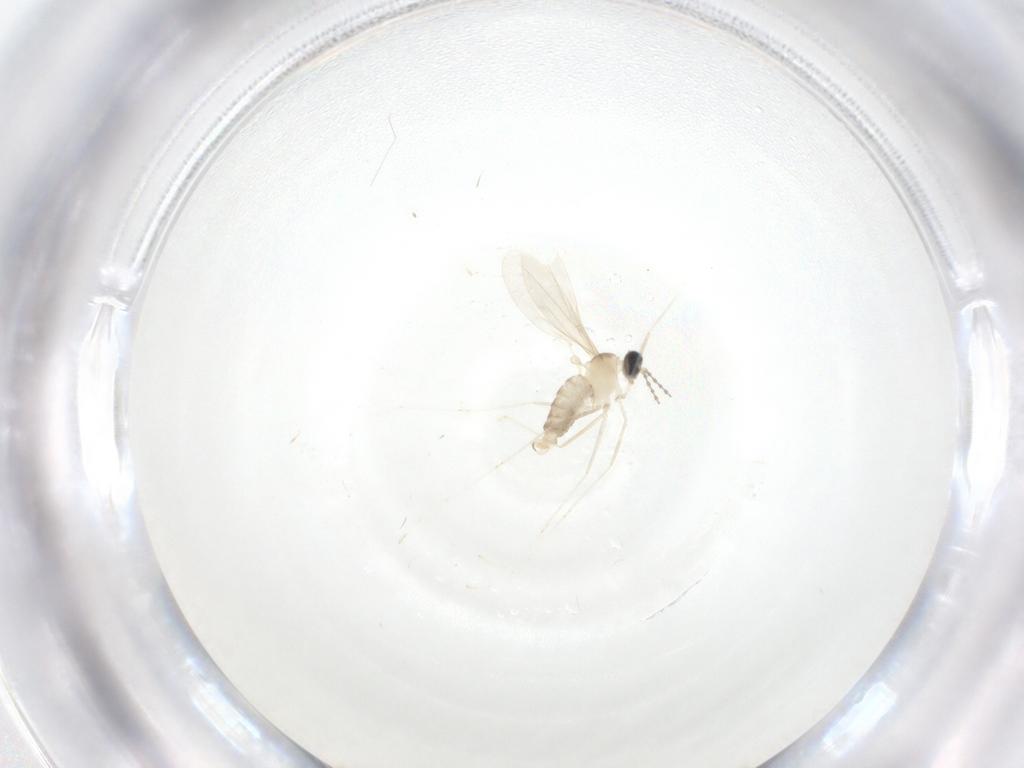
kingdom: Animalia
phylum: Arthropoda
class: Insecta
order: Diptera
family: Cecidomyiidae
